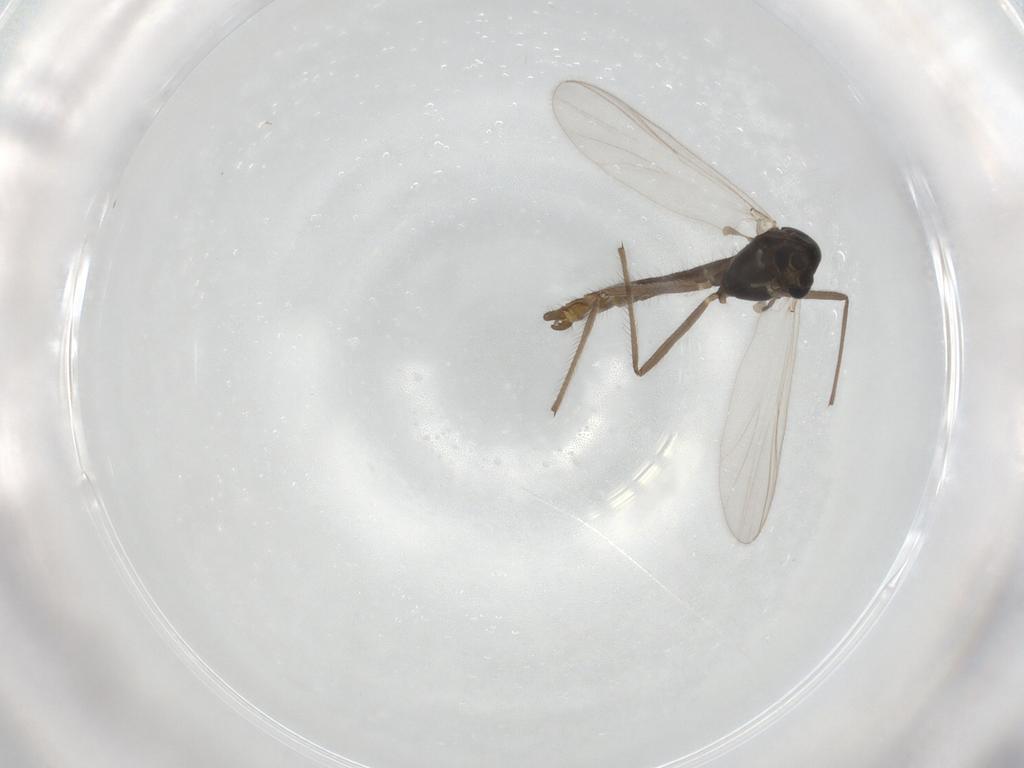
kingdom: Animalia
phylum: Arthropoda
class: Insecta
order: Diptera
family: Chironomidae
